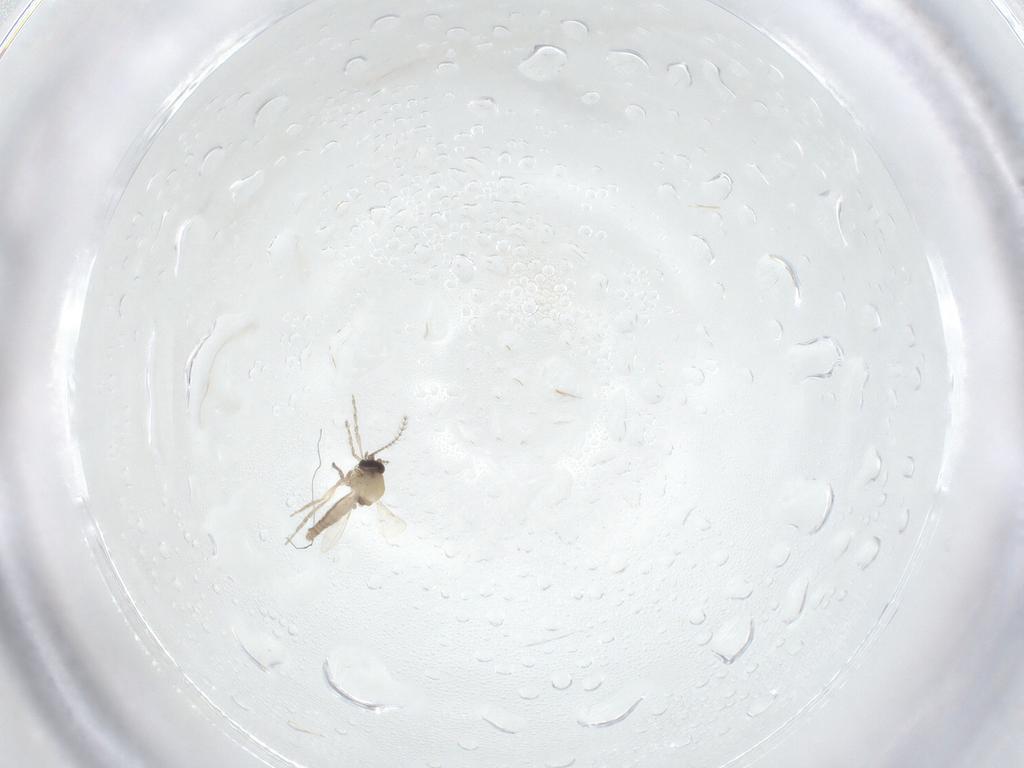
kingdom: Animalia
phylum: Arthropoda
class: Insecta
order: Diptera
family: Ceratopogonidae
